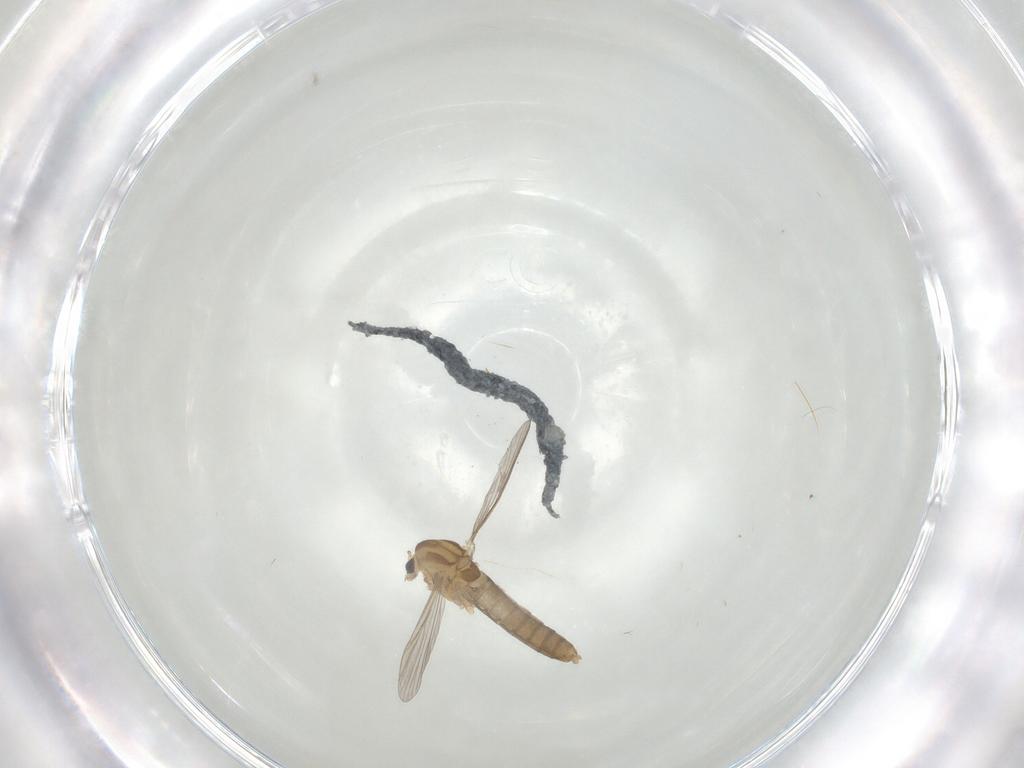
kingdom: Animalia
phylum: Arthropoda
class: Insecta
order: Diptera
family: Chironomidae
